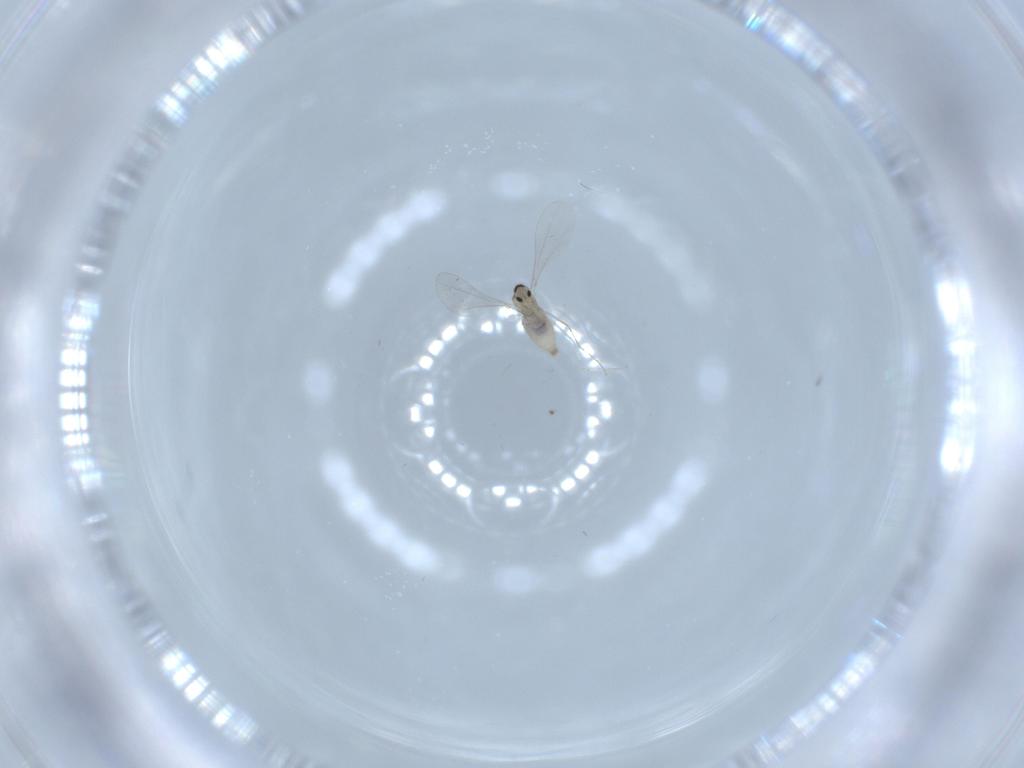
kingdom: Animalia
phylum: Arthropoda
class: Insecta
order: Diptera
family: Cecidomyiidae
